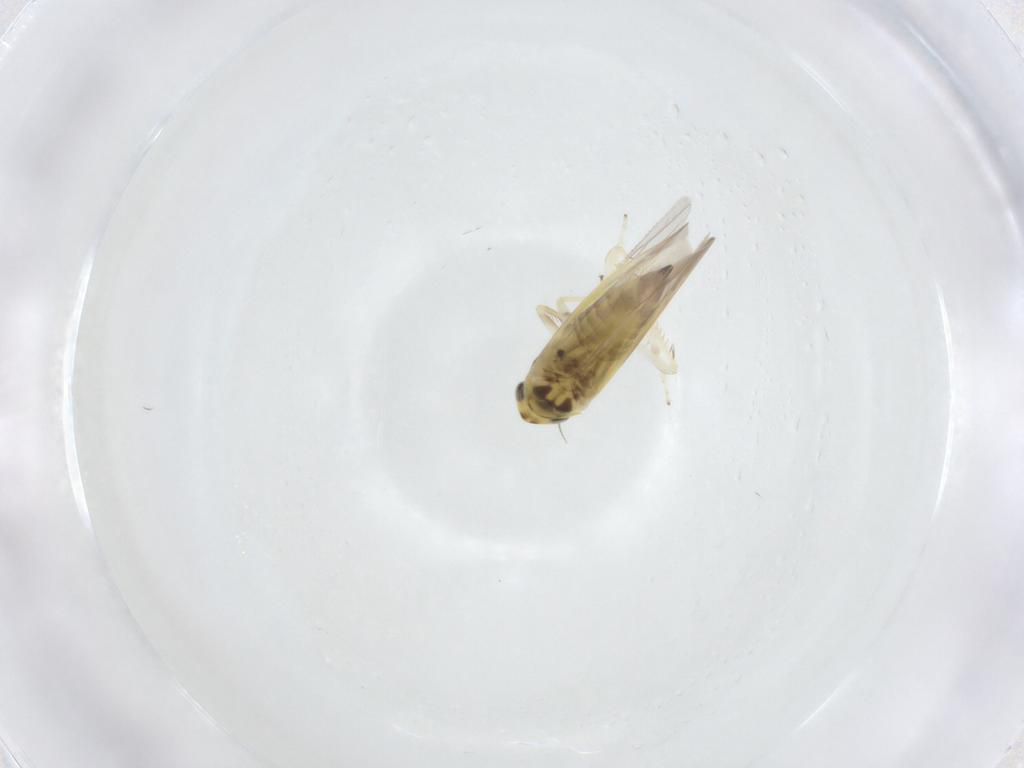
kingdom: Animalia
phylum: Arthropoda
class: Insecta
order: Hemiptera
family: Cicadellidae
